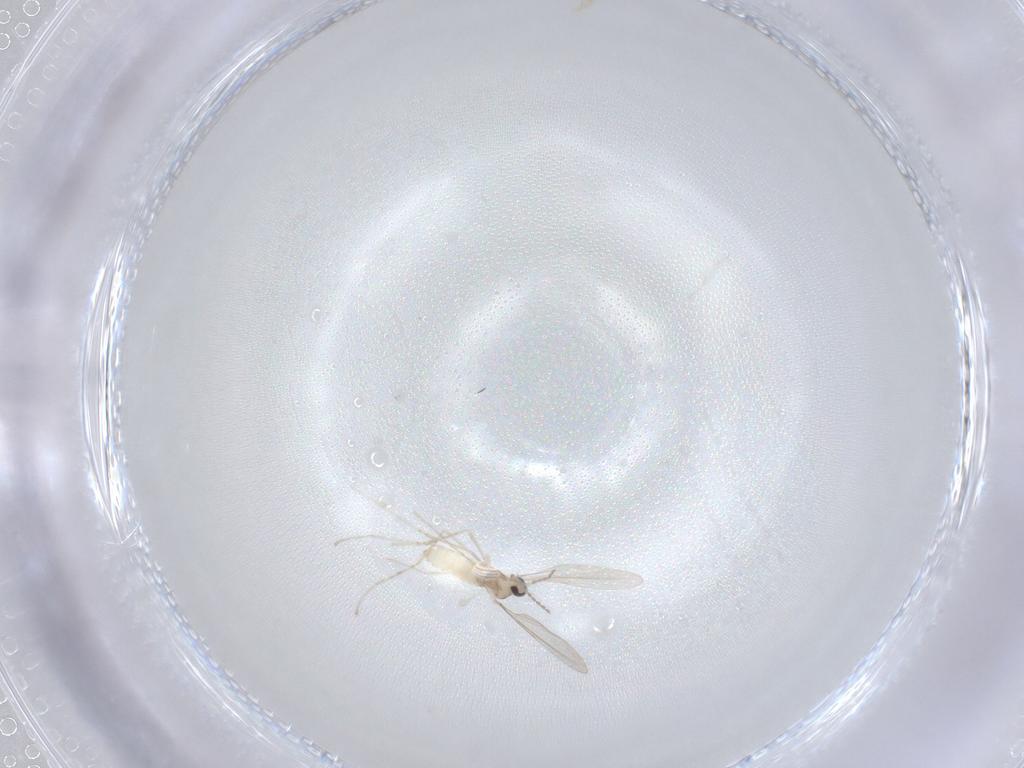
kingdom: Animalia
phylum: Arthropoda
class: Insecta
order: Diptera
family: Cecidomyiidae
